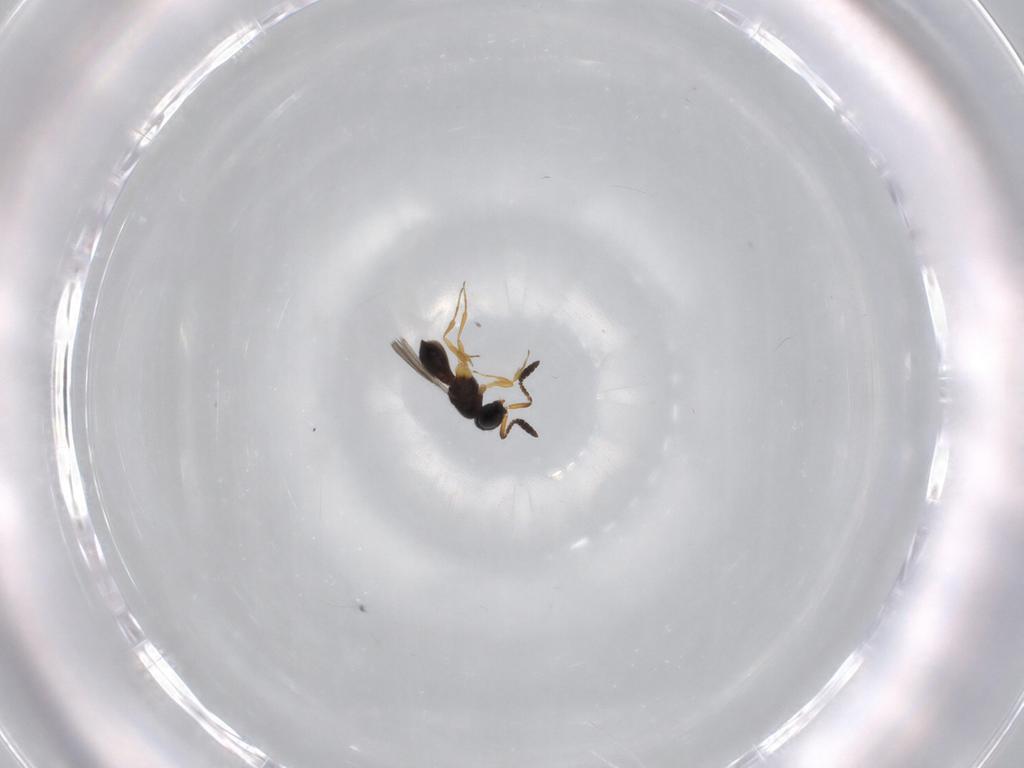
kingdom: Animalia
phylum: Arthropoda
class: Insecta
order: Hymenoptera
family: Scelionidae
